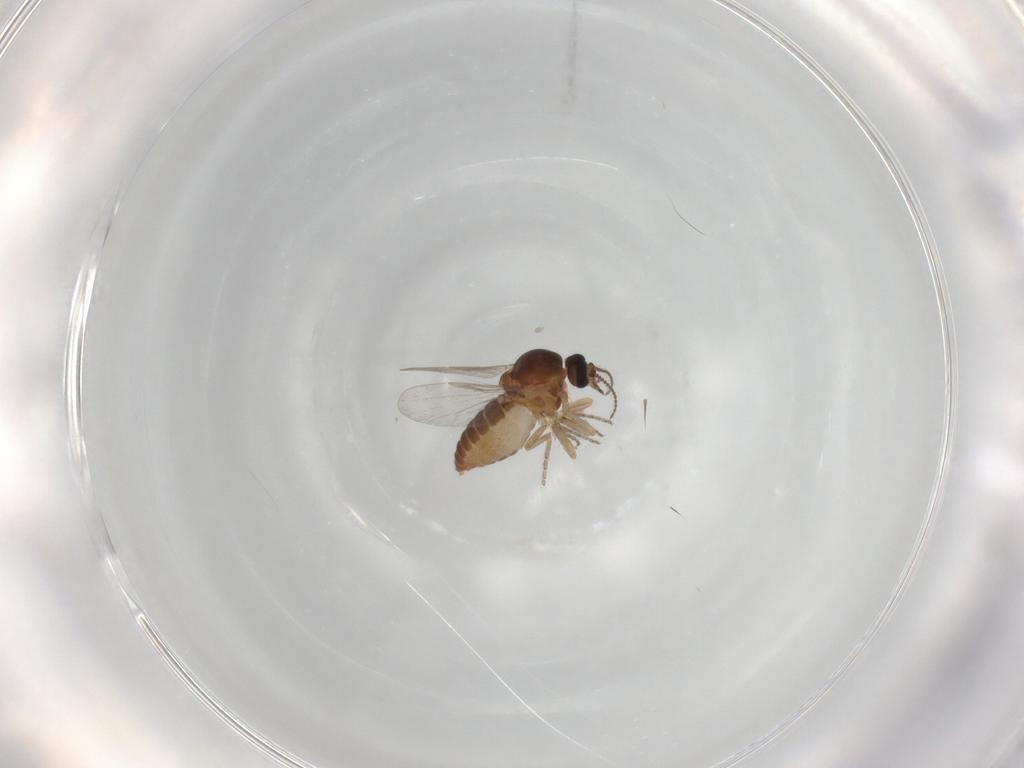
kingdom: Animalia
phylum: Arthropoda
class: Insecta
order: Diptera
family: Ceratopogonidae
